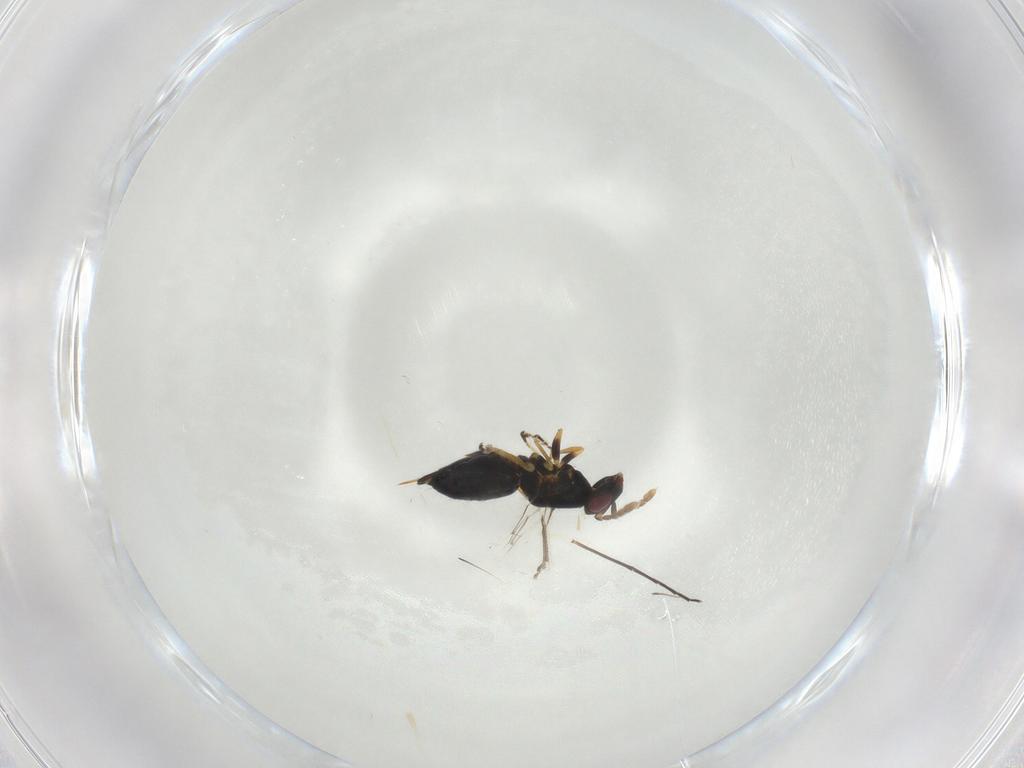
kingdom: Animalia
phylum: Arthropoda
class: Insecta
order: Hymenoptera
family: Eulophidae
